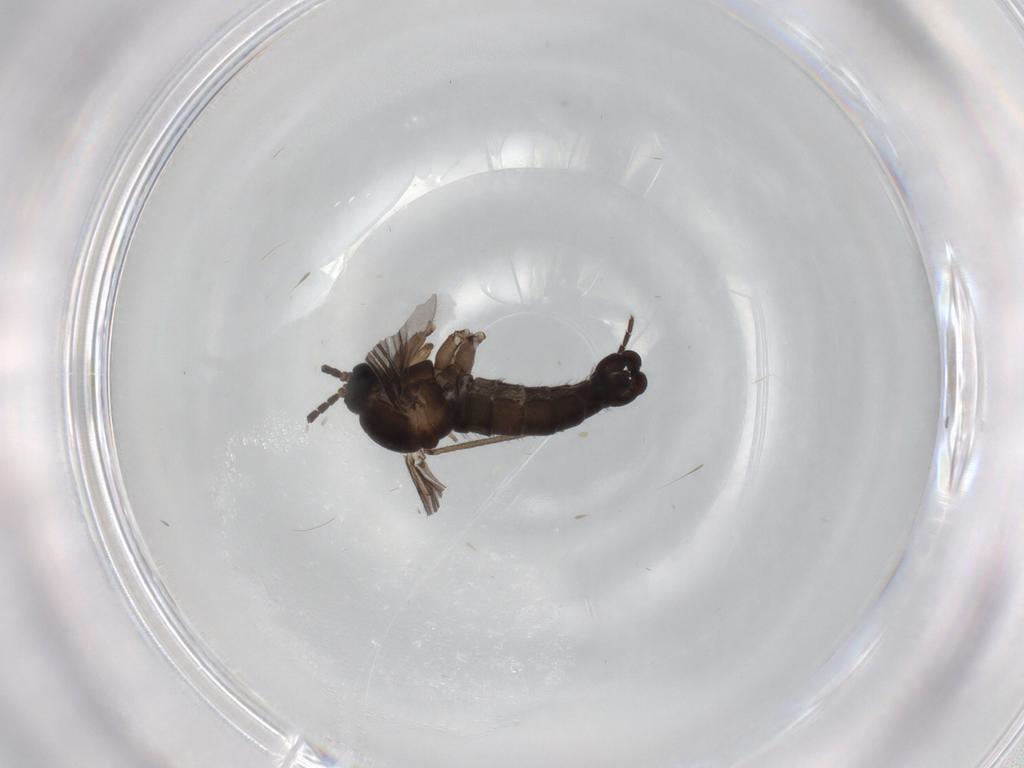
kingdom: Animalia
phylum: Arthropoda
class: Insecta
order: Diptera
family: Sciaridae
